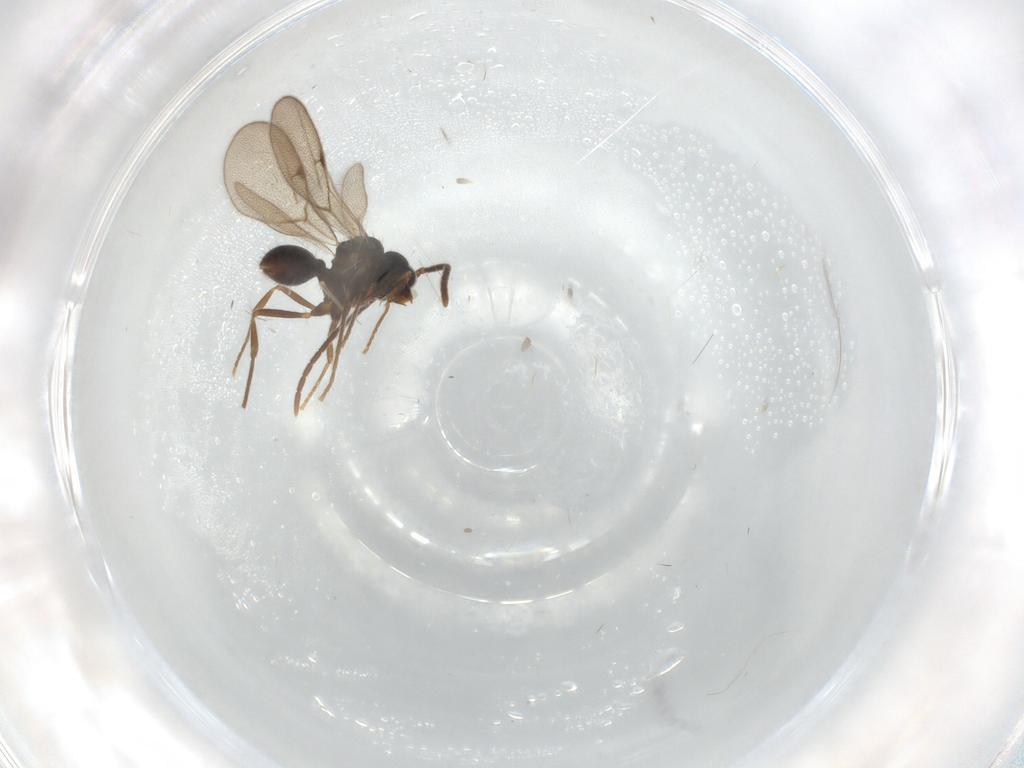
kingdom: Animalia
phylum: Arthropoda
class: Insecta
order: Hymenoptera
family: Formicidae
